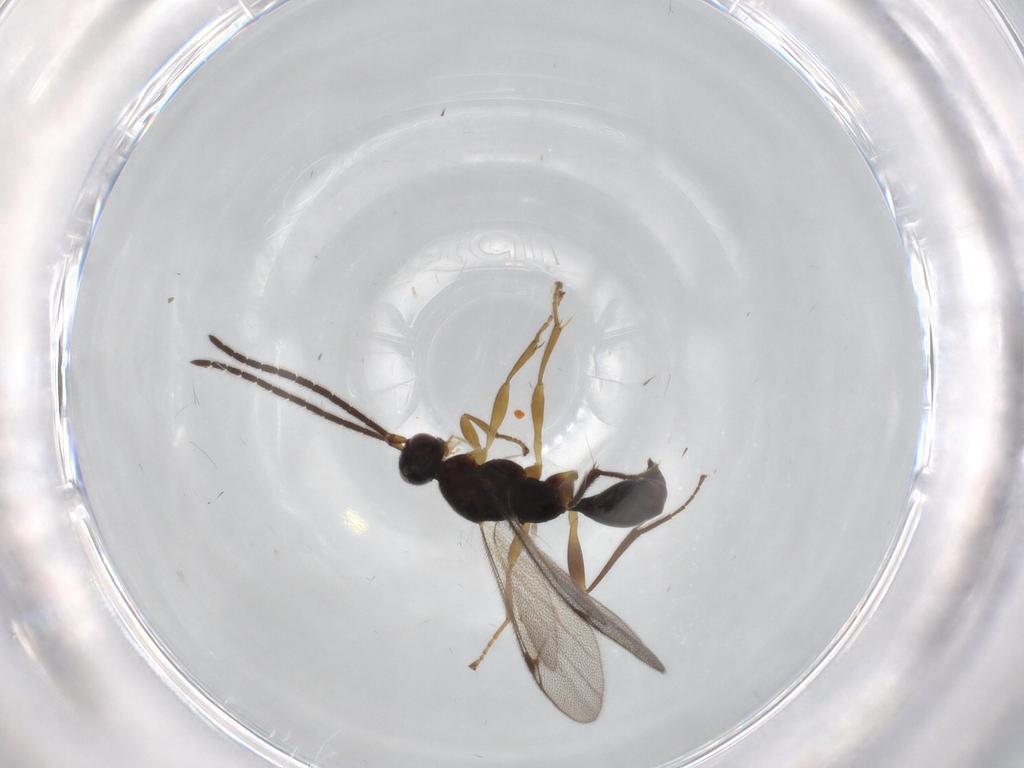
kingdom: Animalia
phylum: Arthropoda
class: Insecta
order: Hymenoptera
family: Proctotrupidae
